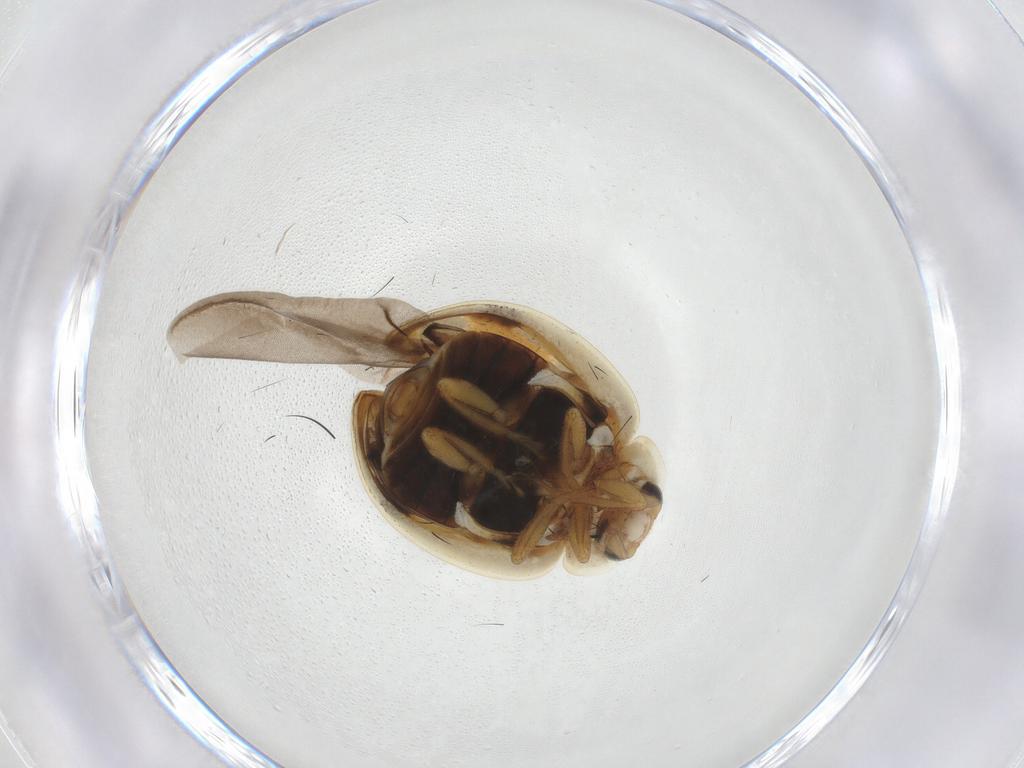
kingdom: Animalia
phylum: Arthropoda
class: Insecta
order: Coleoptera
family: Coccinellidae
